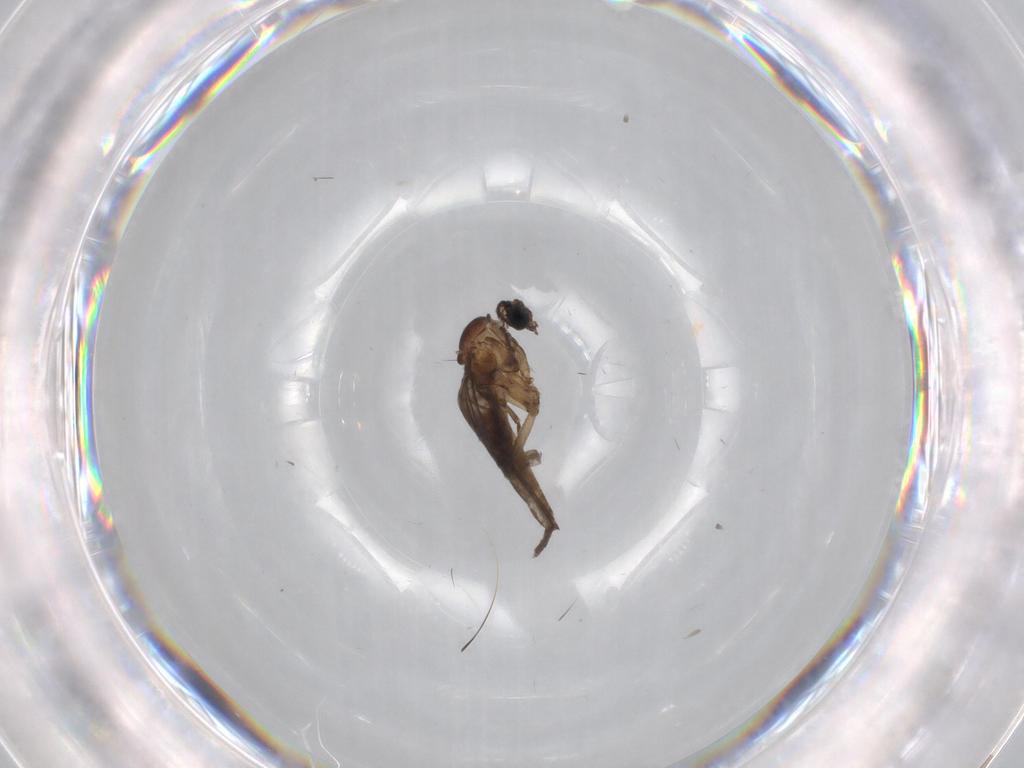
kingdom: Animalia
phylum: Arthropoda
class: Insecta
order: Diptera
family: Sciaridae
